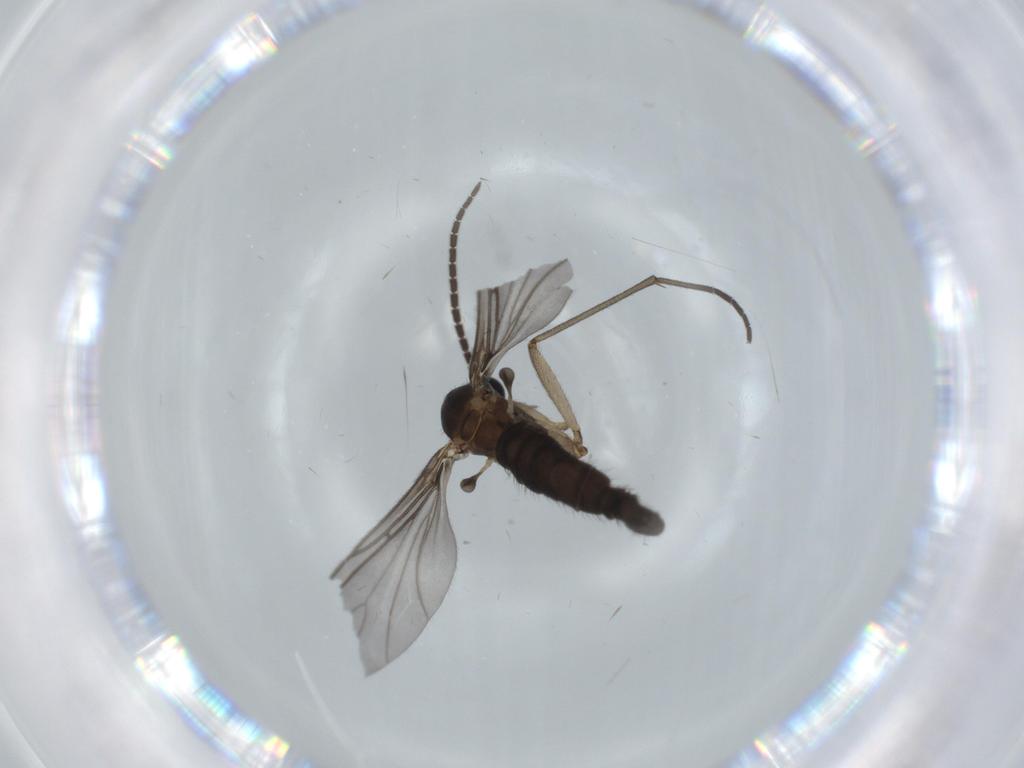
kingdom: Animalia
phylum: Arthropoda
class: Insecta
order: Diptera
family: Sciaridae
